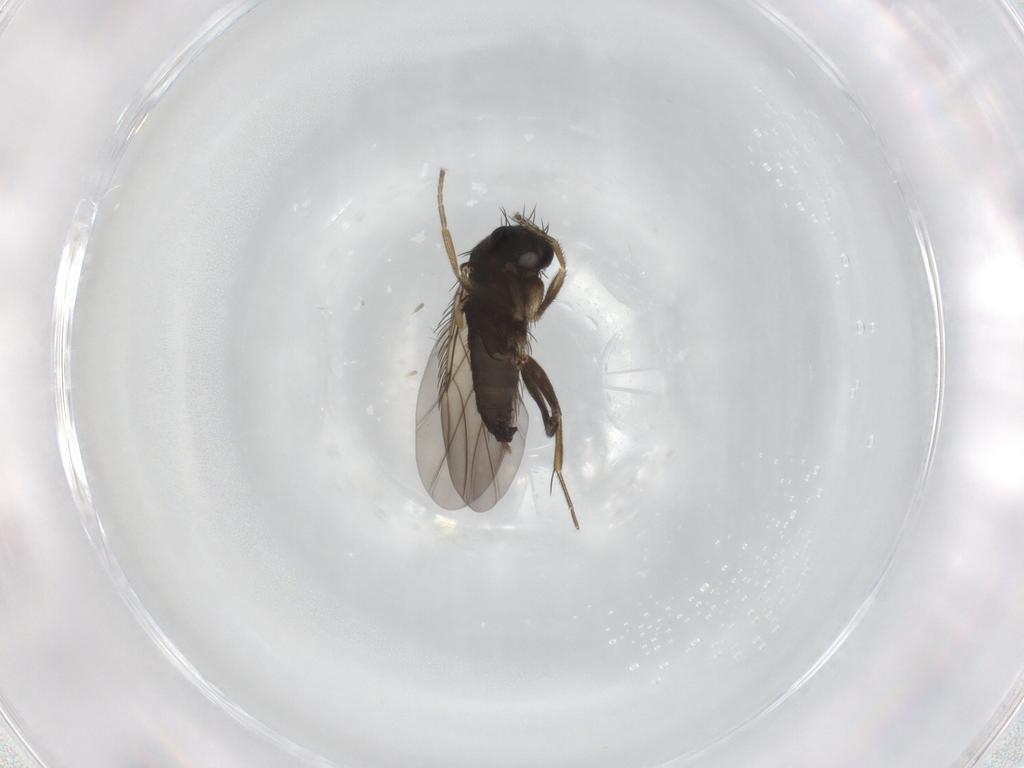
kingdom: Animalia
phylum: Arthropoda
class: Insecta
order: Diptera
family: Phoridae
